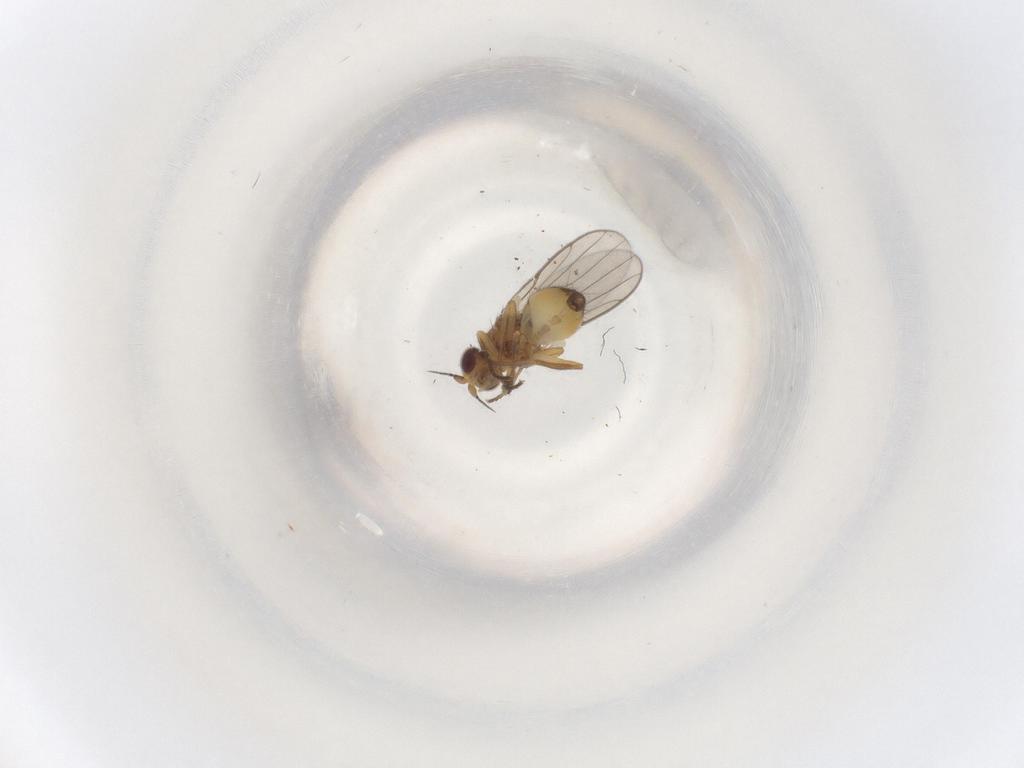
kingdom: Animalia
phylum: Arthropoda
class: Insecta
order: Diptera
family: Chloropidae
